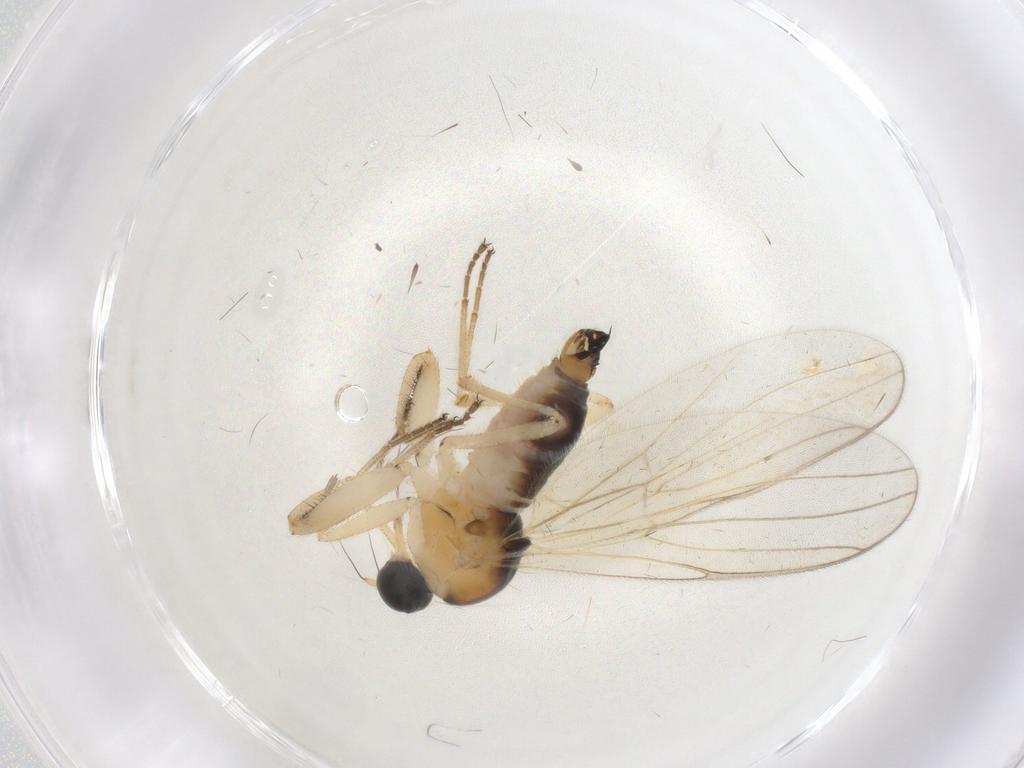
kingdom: Animalia
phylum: Arthropoda
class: Insecta
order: Diptera
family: Hybotidae
